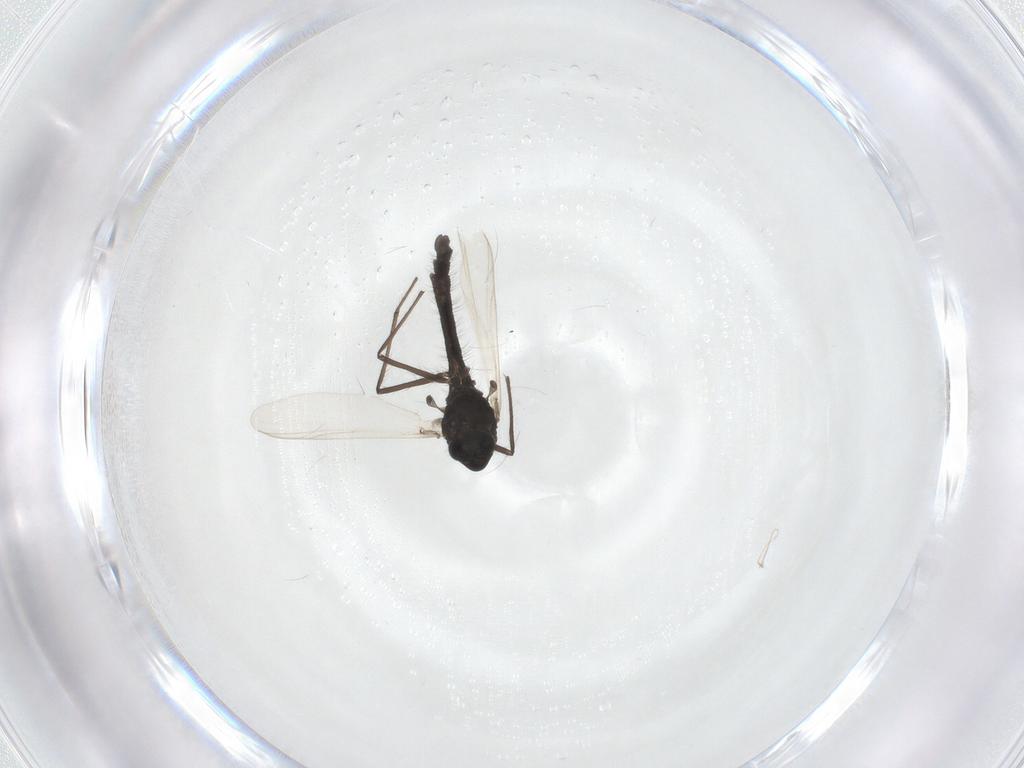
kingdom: Animalia
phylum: Arthropoda
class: Insecta
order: Diptera
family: Chironomidae
